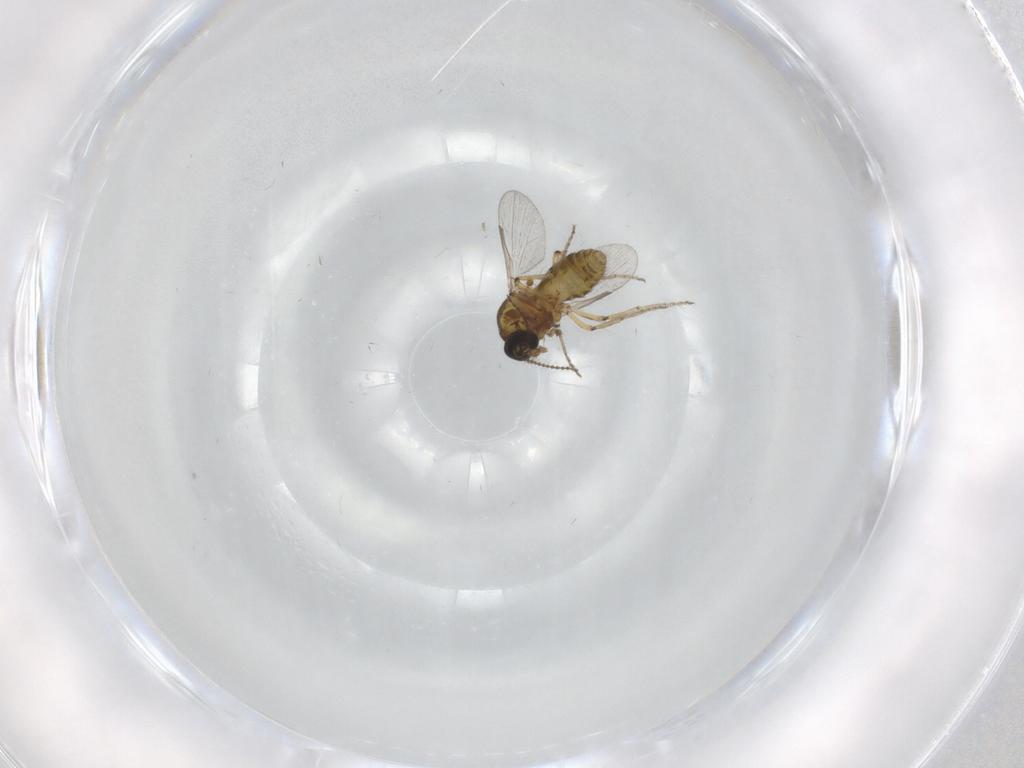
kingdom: Animalia
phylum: Arthropoda
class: Insecta
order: Diptera
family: Ceratopogonidae
